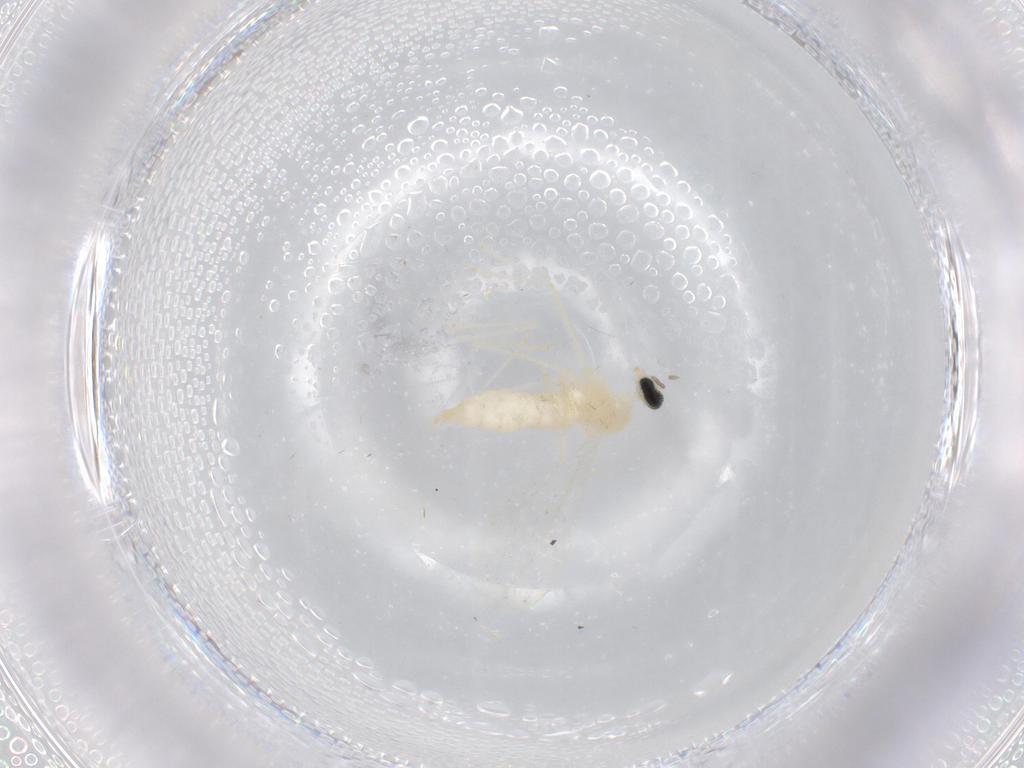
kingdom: Animalia
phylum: Arthropoda
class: Insecta
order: Diptera
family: Cecidomyiidae
